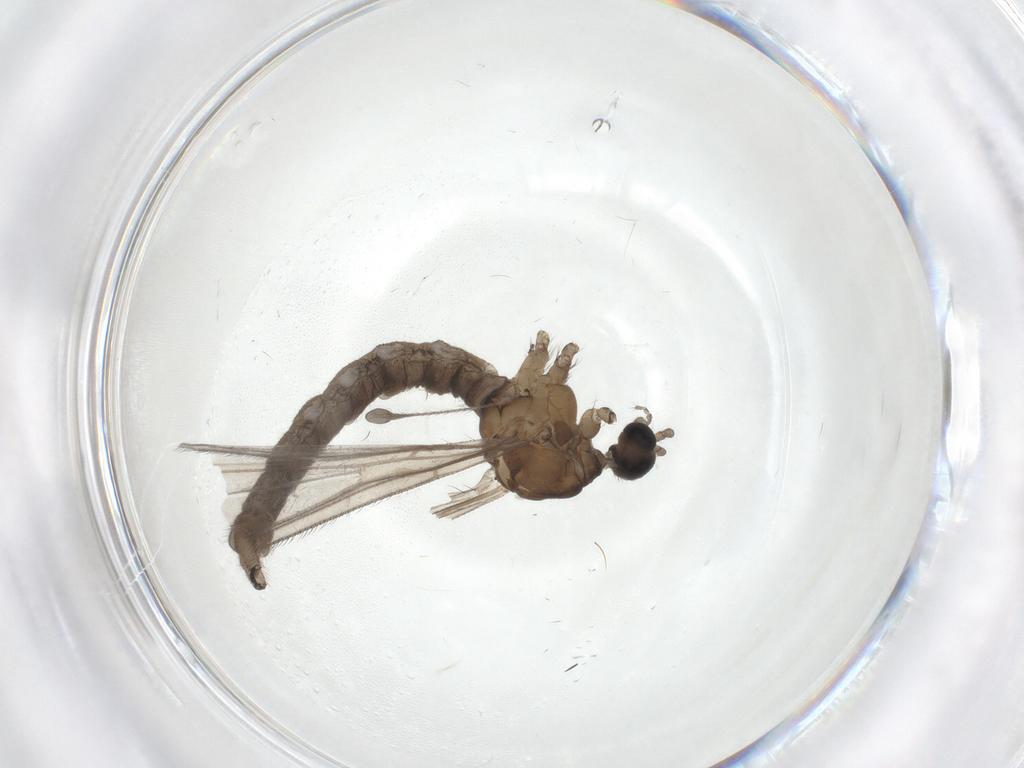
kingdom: Animalia
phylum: Arthropoda
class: Insecta
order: Diptera
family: Limoniidae
